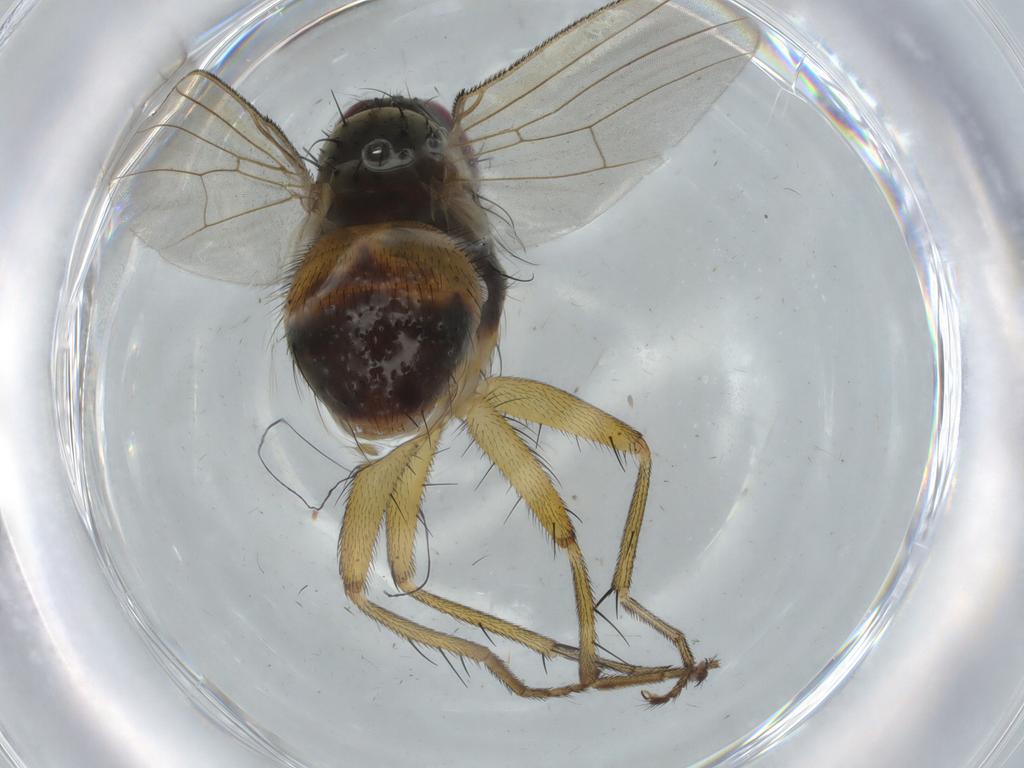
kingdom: Animalia
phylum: Arthropoda
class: Insecta
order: Diptera
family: Muscidae
